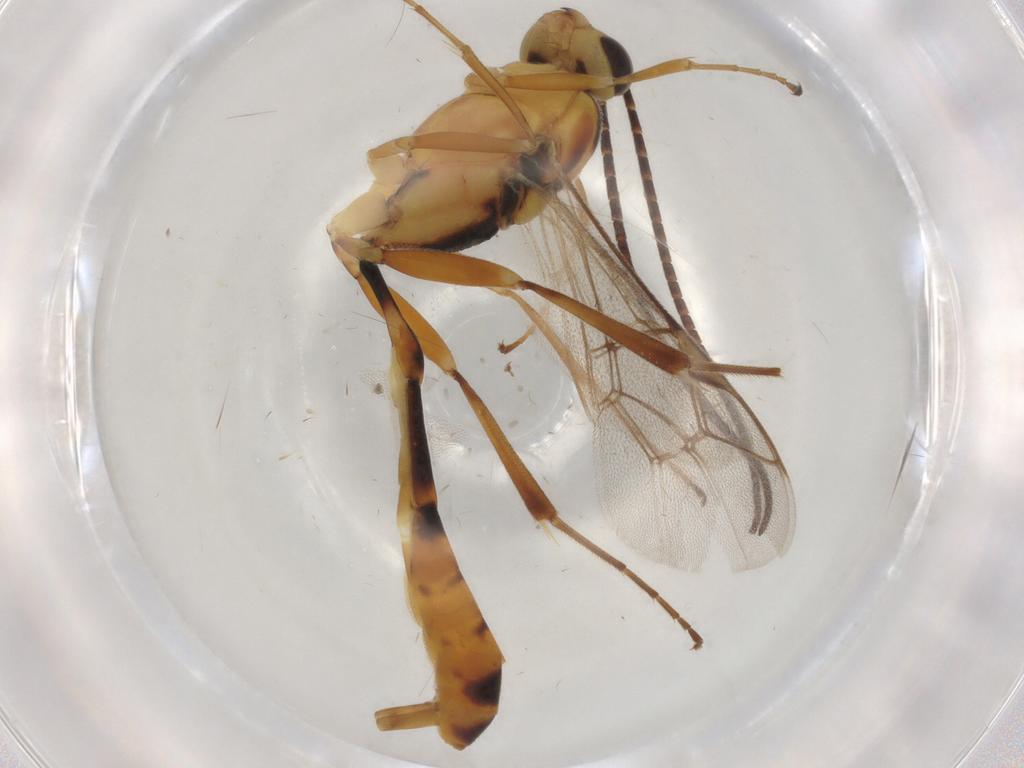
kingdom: Animalia
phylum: Arthropoda
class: Insecta
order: Hymenoptera
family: Ichneumonidae
